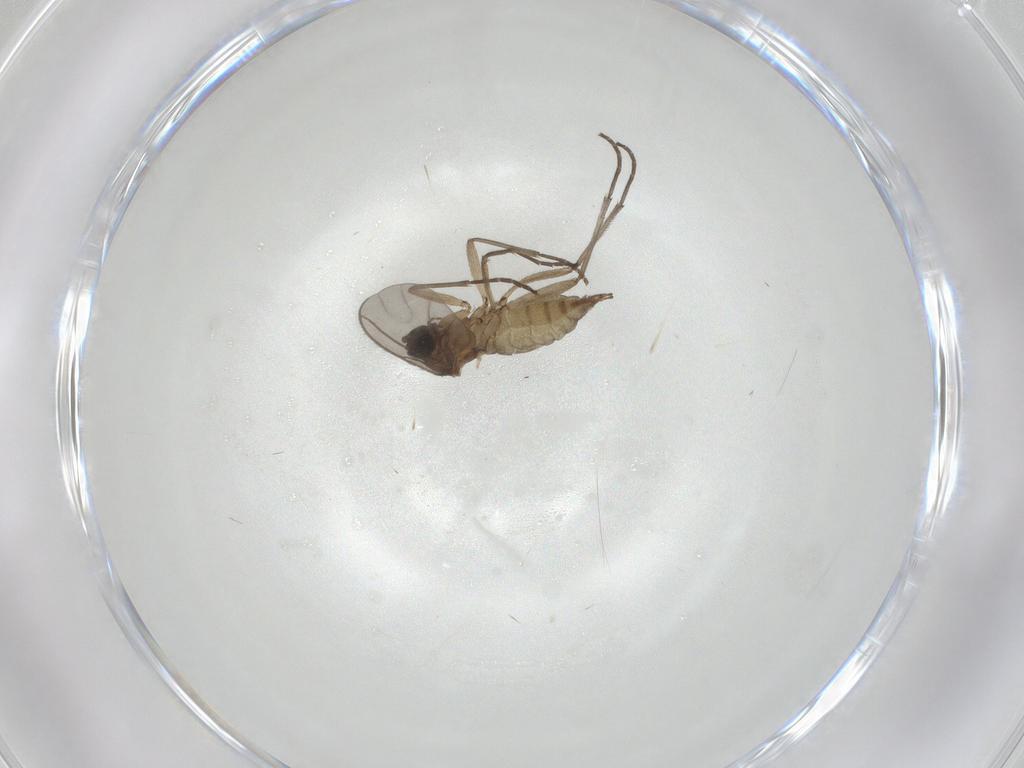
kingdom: Animalia
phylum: Arthropoda
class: Insecta
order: Diptera
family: Sciaridae
